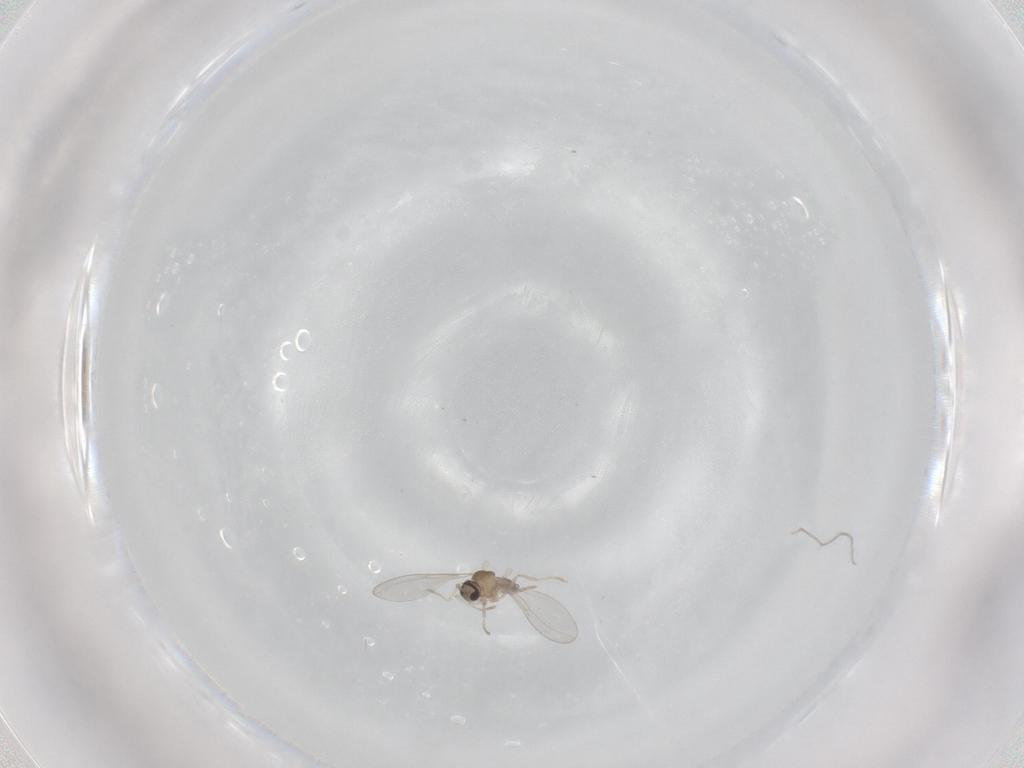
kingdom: Animalia
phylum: Arthropoda
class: Insecta
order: Diptera
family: Cecidomyiidae
